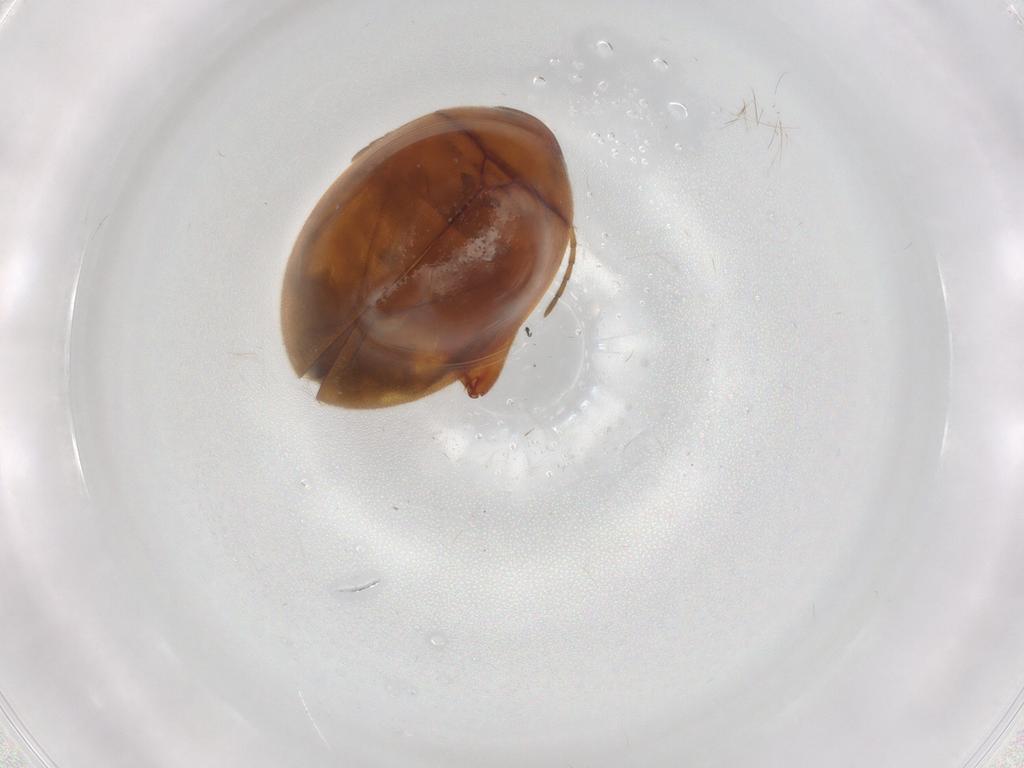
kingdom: Animalia
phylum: Arthropoda
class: Insecta
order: Coleoptera
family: Scirtidae
